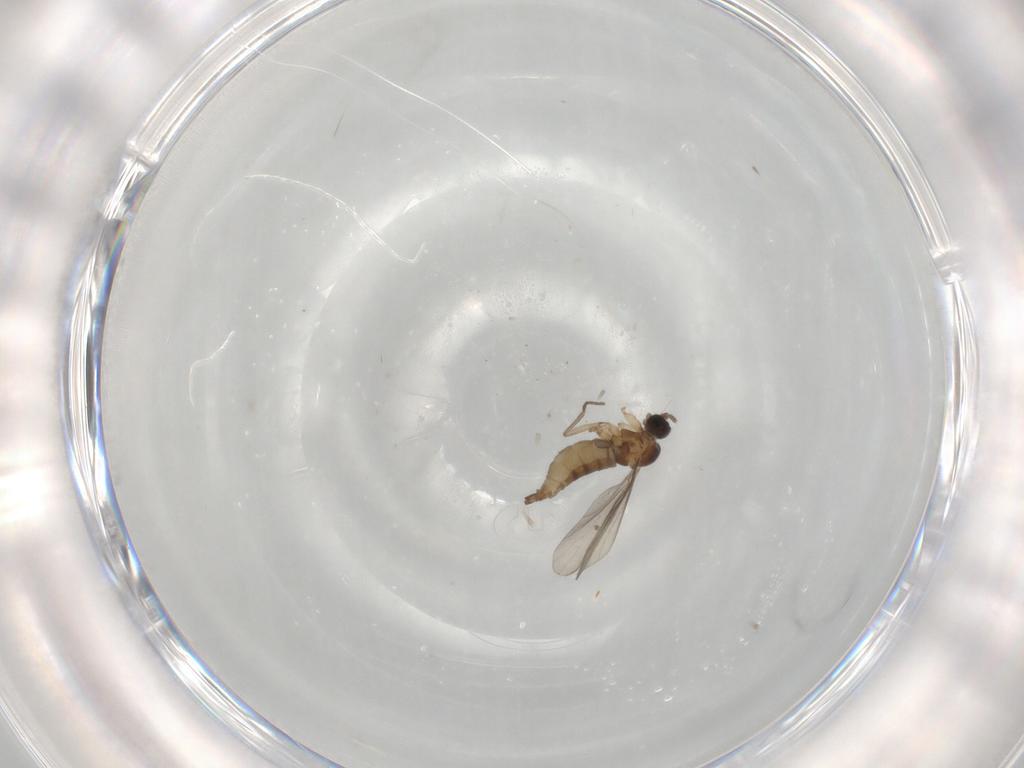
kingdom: Animalia
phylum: Arthropoda
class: Insecta
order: Diptera
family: Sciaridae
